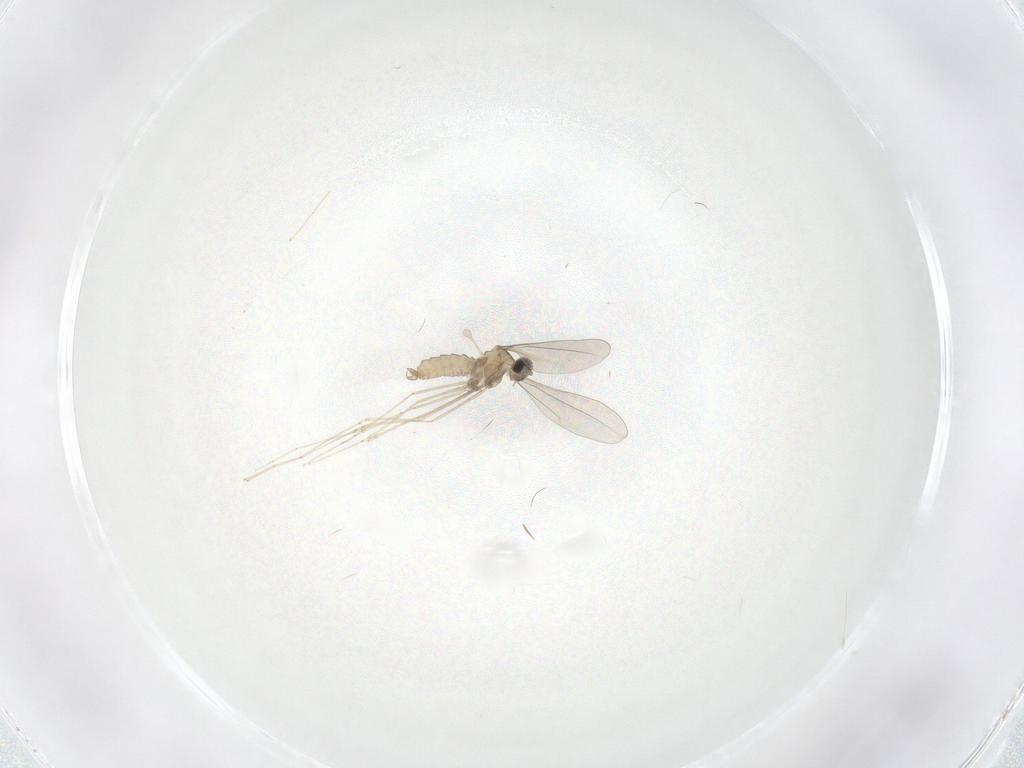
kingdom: Animalia
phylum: Arthropoda
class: Insecta
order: Diptera
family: Cecidomyiidae
